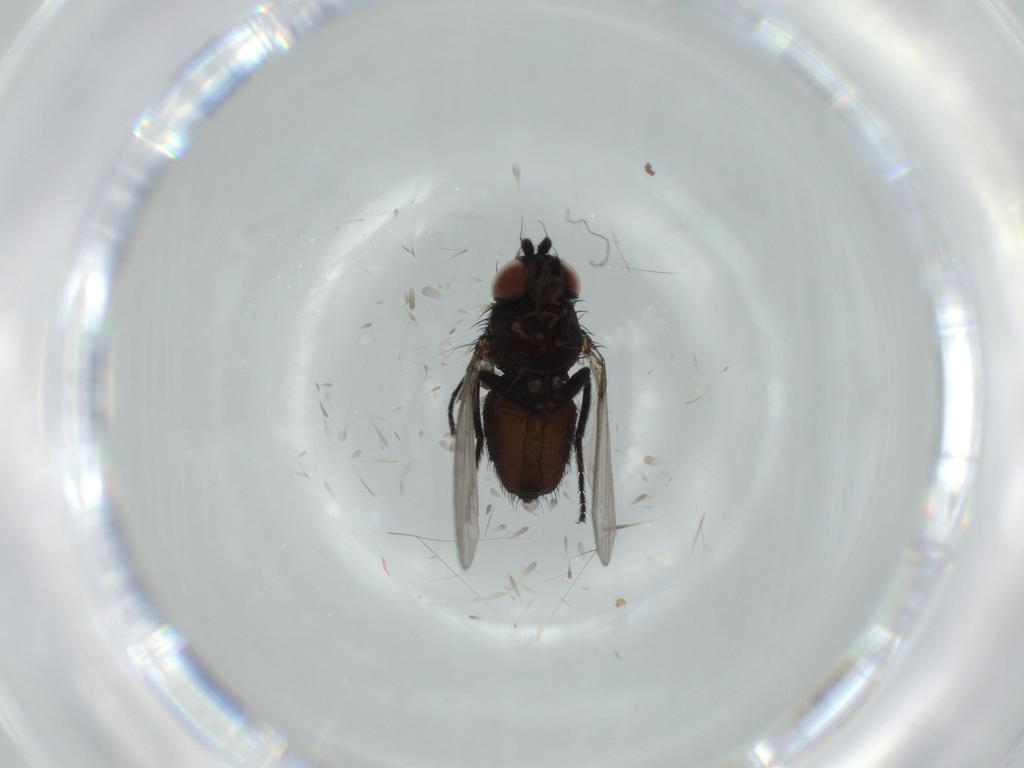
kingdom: Animalia
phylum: Arthropoda
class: Insecta
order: Diptera
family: Milichiidae
